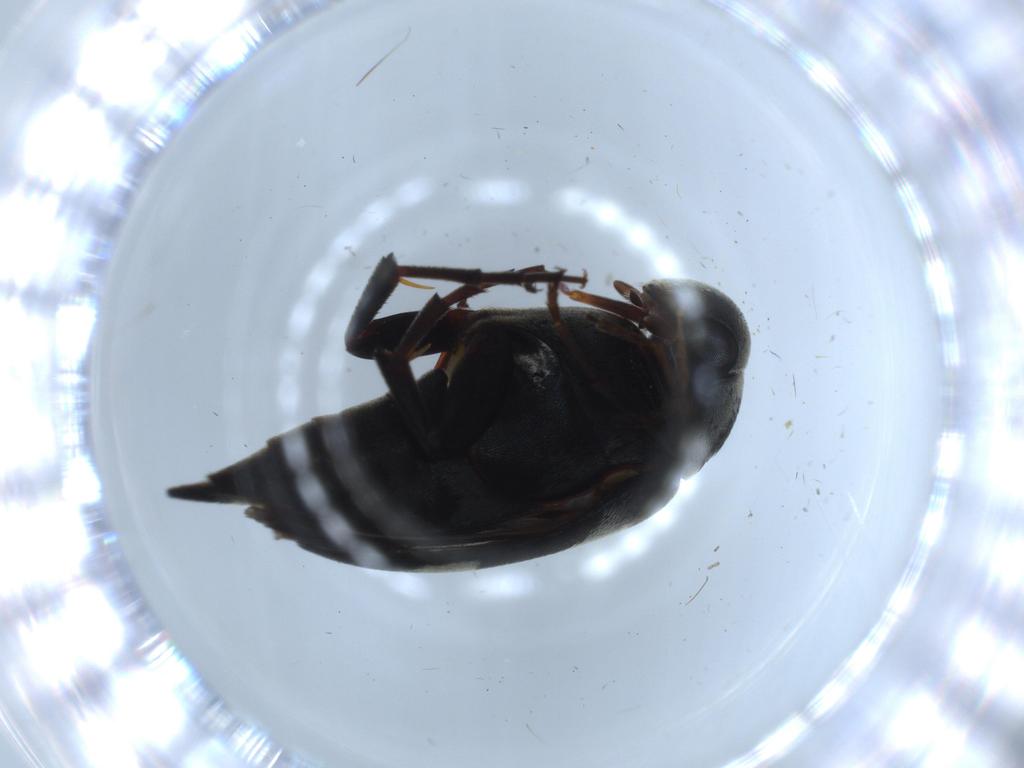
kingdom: Animalia
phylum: Arthropoda
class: Insecta
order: Coleoptera
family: Mordellidae
